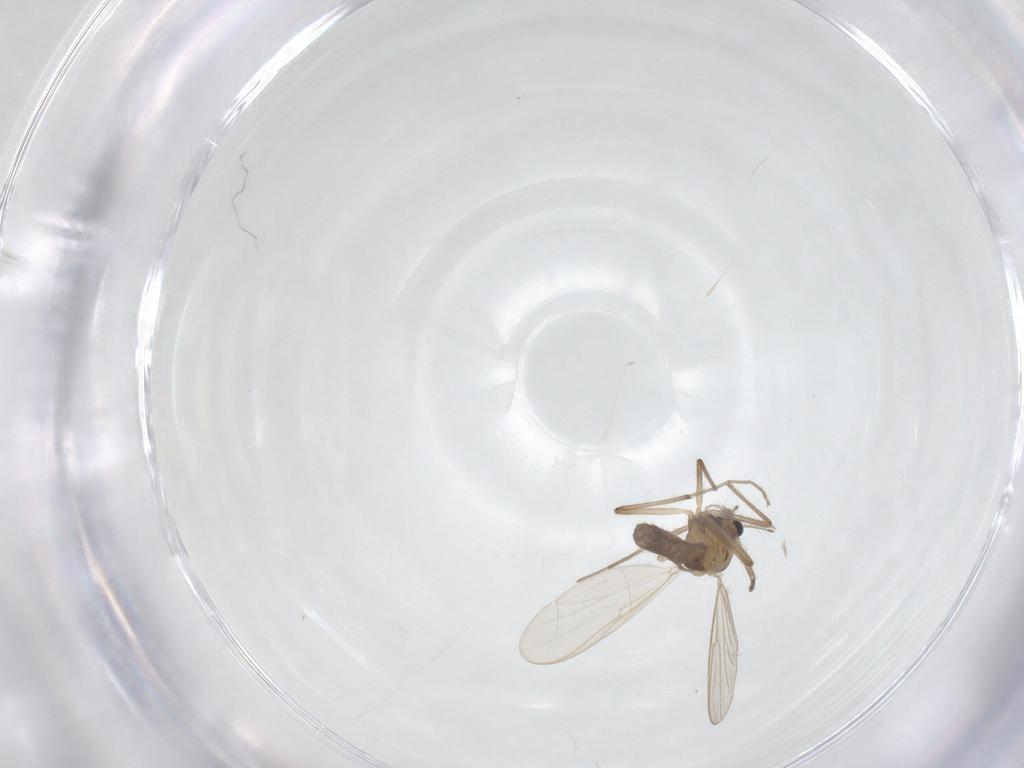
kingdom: Animalia
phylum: Arthropoda
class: Insecta
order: Diptera
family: Chironomidae
